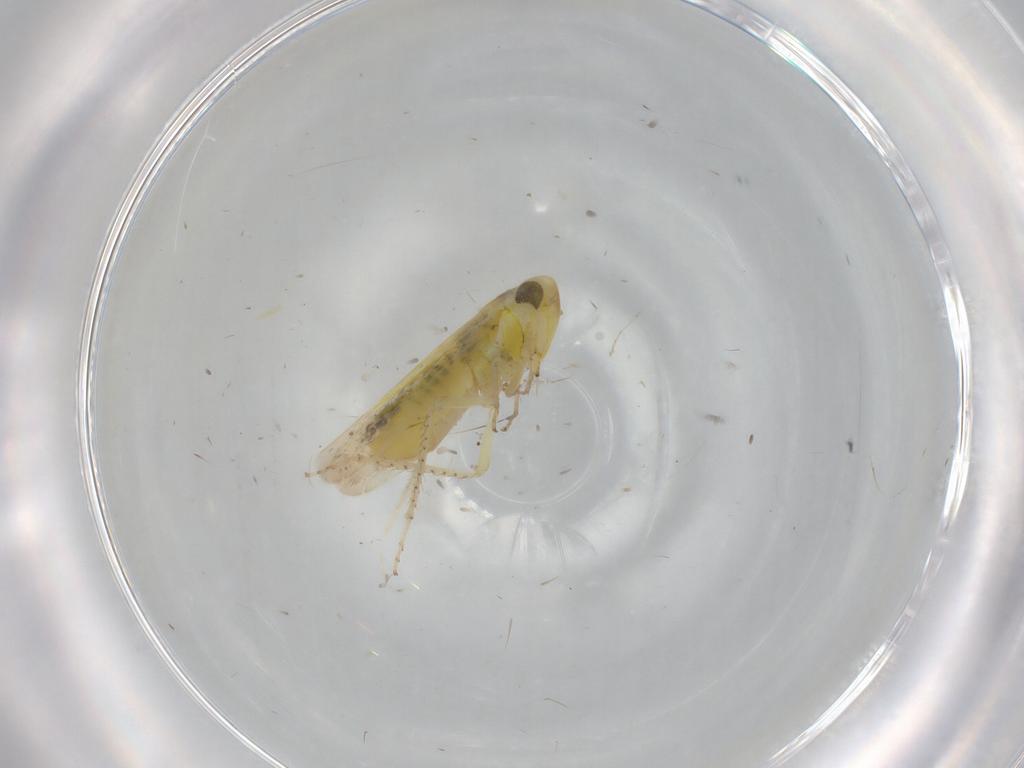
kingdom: Animalia
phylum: Arthropoda
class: Insecta
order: Hemiptera
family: Cicadellidae
